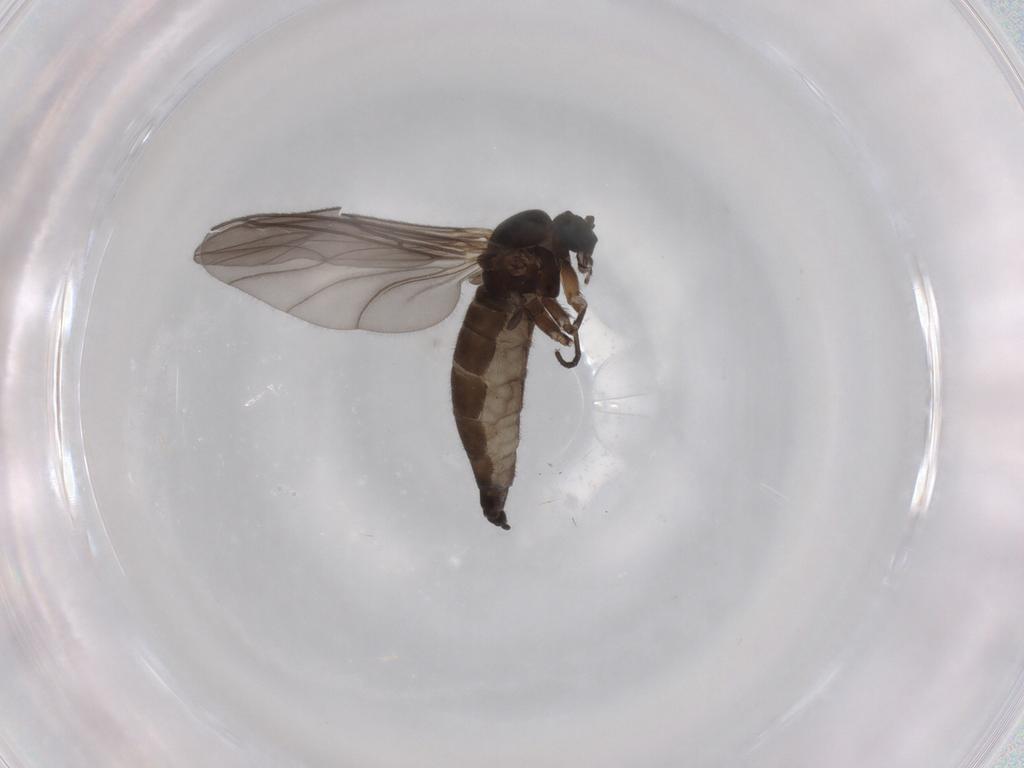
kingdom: Animalia
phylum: Arthropoda
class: Insecta
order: Diptera
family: Sciaridae
